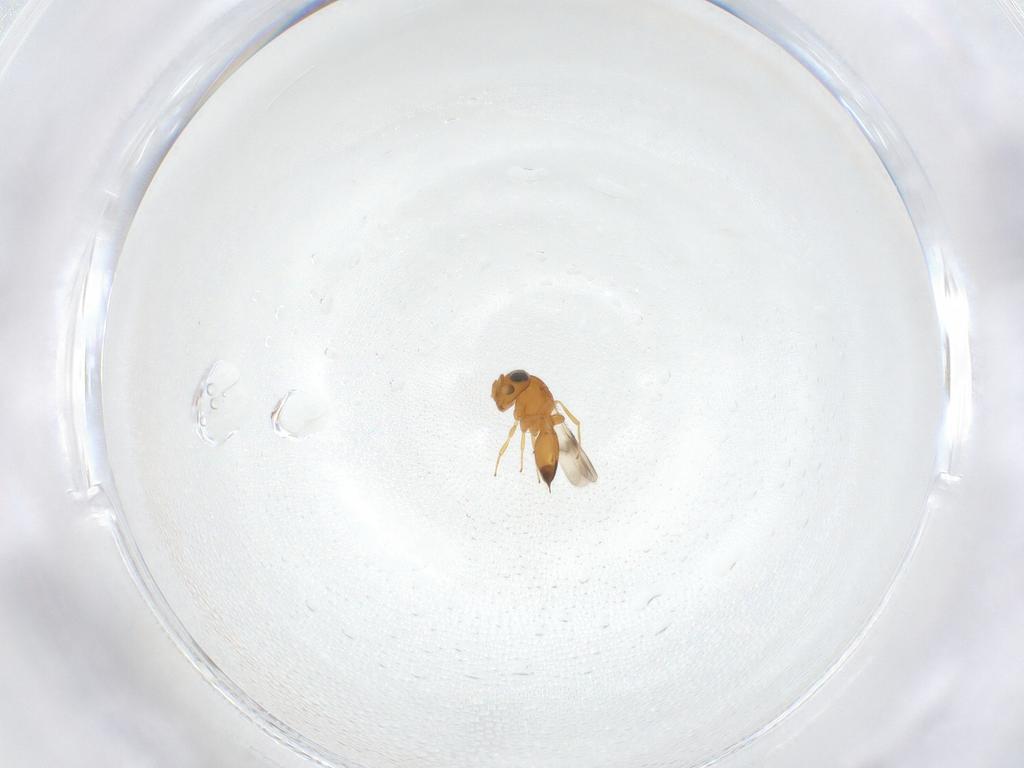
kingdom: Animalia
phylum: Arthropoda
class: Insecta
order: Hymenoptera
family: Scelionidae
